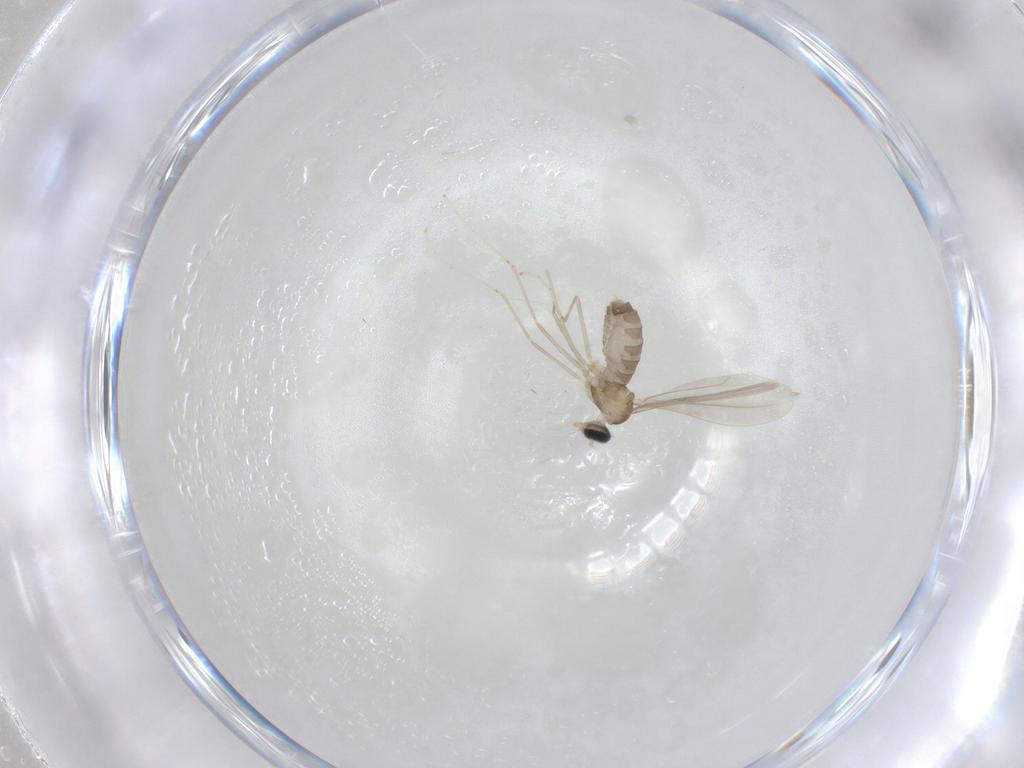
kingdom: Animalia
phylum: Arthropoda
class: Insecta
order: Diptera
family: Cecidomyiidae
